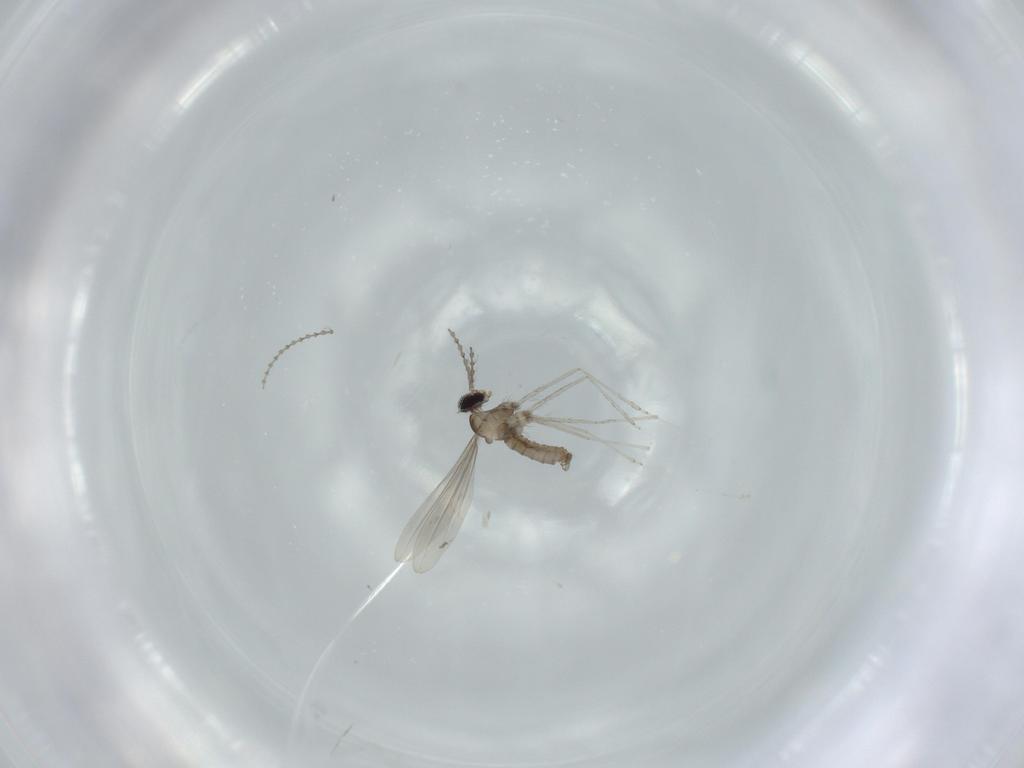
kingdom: Animalia
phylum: Arthropoda
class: Insecta
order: Diptera
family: Cecidomyiidae
